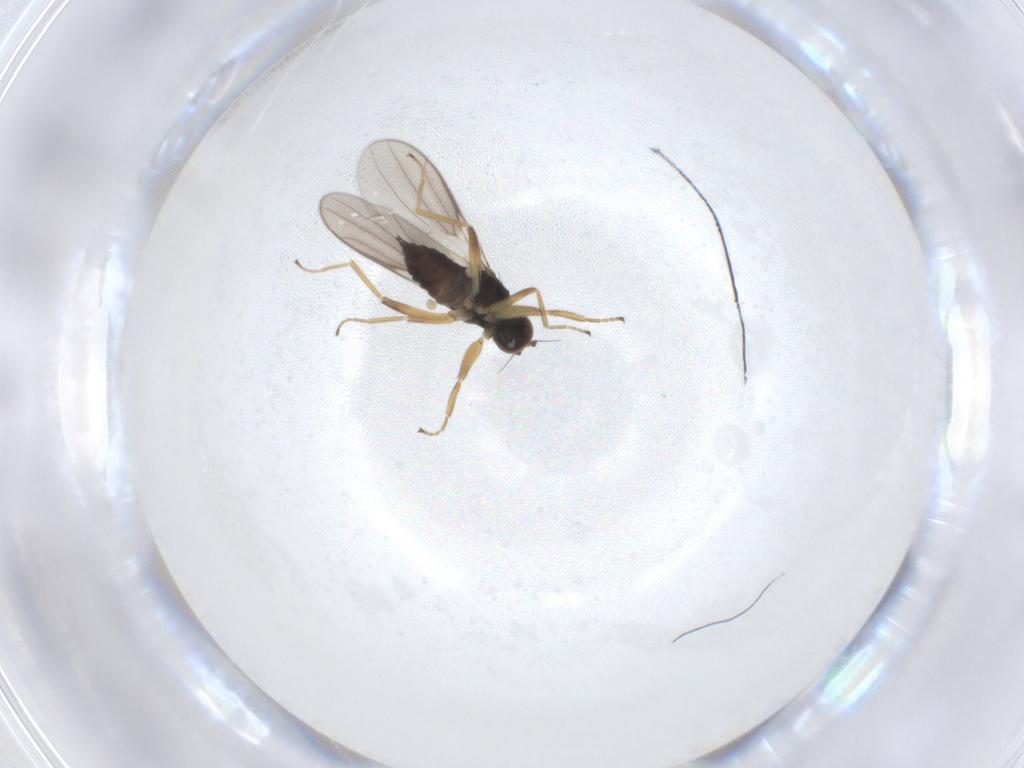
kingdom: Animalia
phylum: Arthropoda
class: Insecta
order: Diptera
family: Hybotidae
